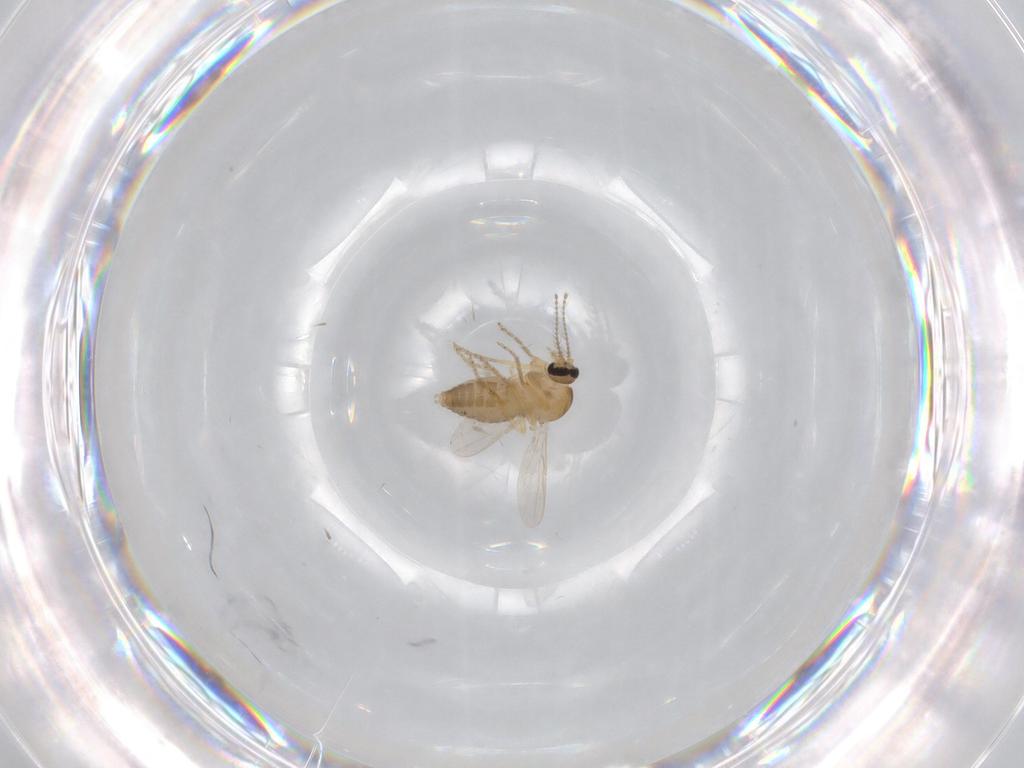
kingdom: Animalia
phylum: Arthropoda
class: Insecta
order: Diptera
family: Ceratopogonidae
